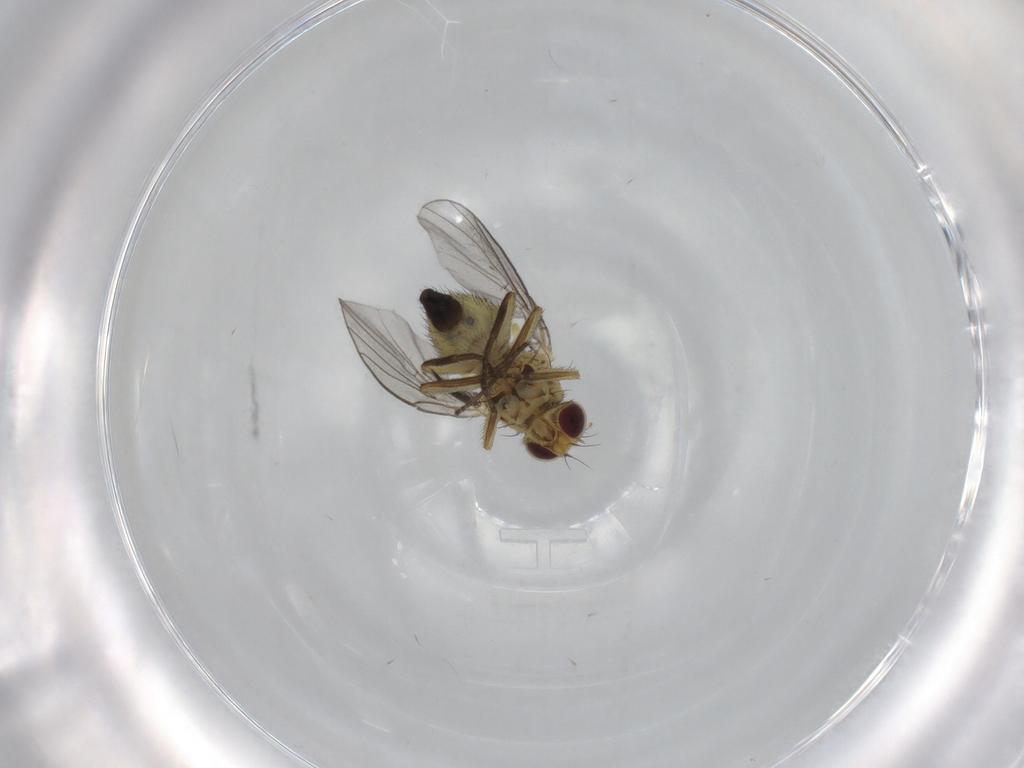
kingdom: Animalia
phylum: Arthropoda
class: Insecta
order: Diptera
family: Agromyzidae
